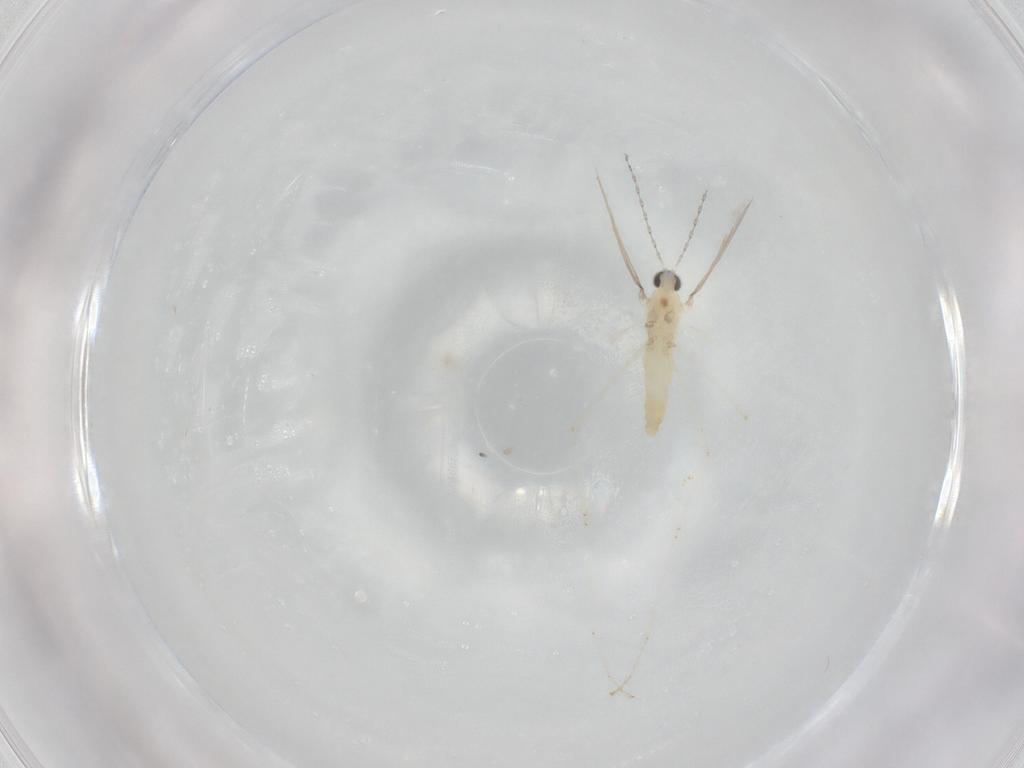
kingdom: Animalia
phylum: Arthropoda
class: Insecta
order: Diptera
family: Cecidomyiidae
